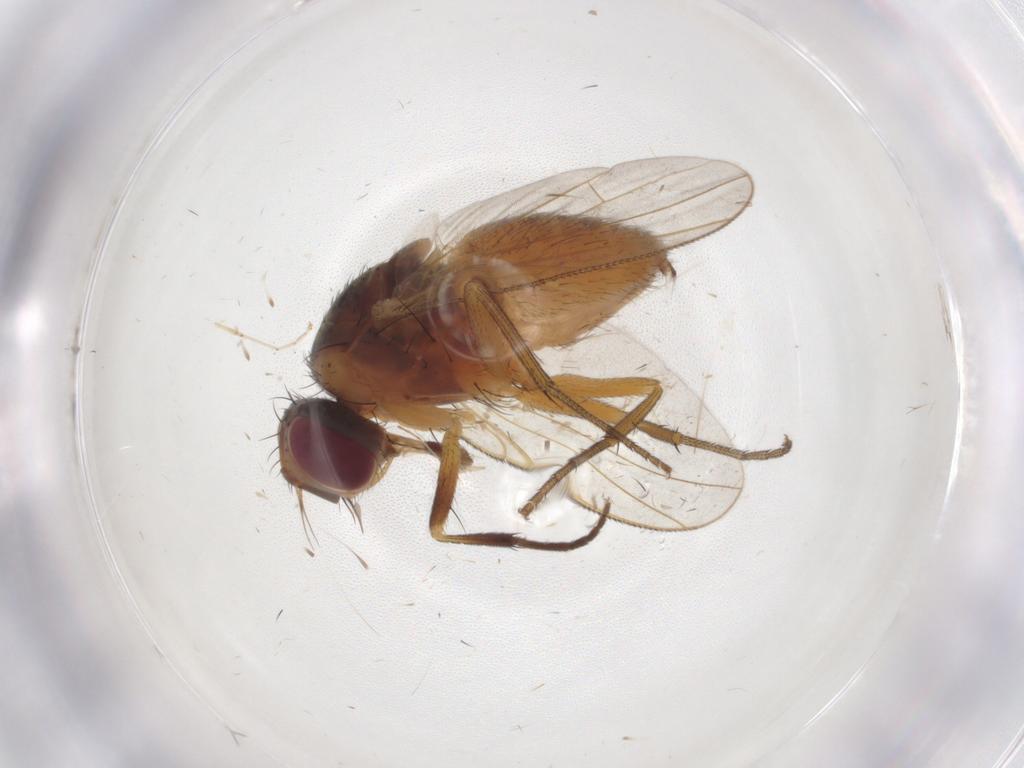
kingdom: Animalia
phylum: Arthropoda
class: Insecta
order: Diptera
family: Muscidae
